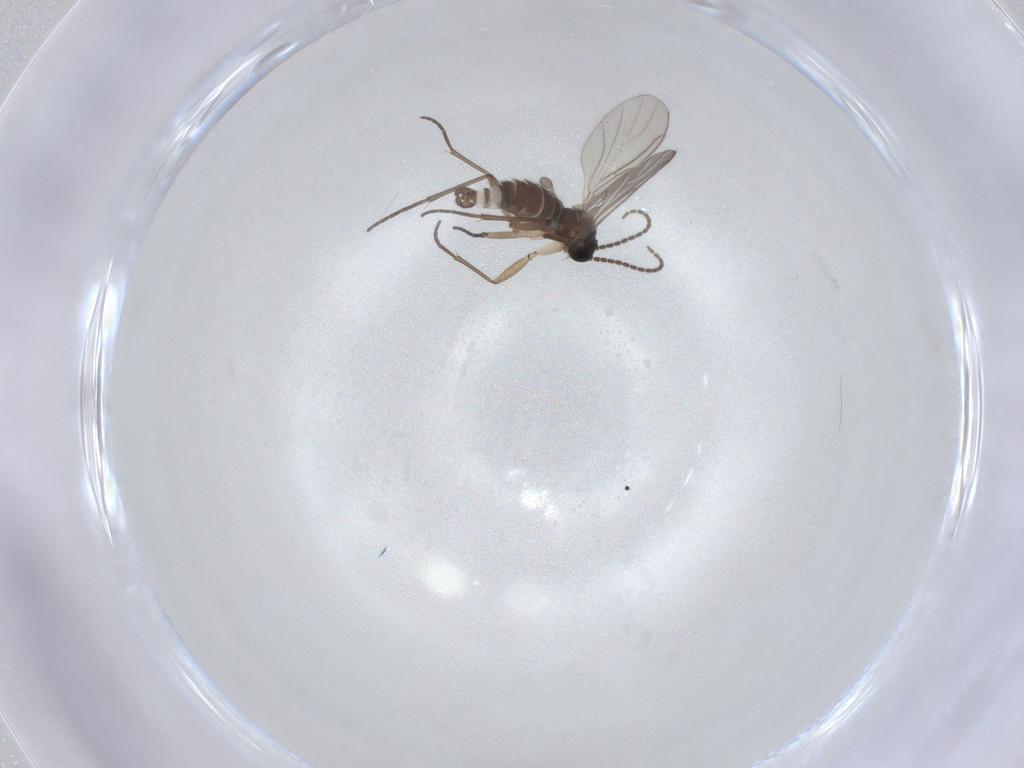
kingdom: Animalia
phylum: Arthropoda
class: Insecta
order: Diptera
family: Sciaridae
